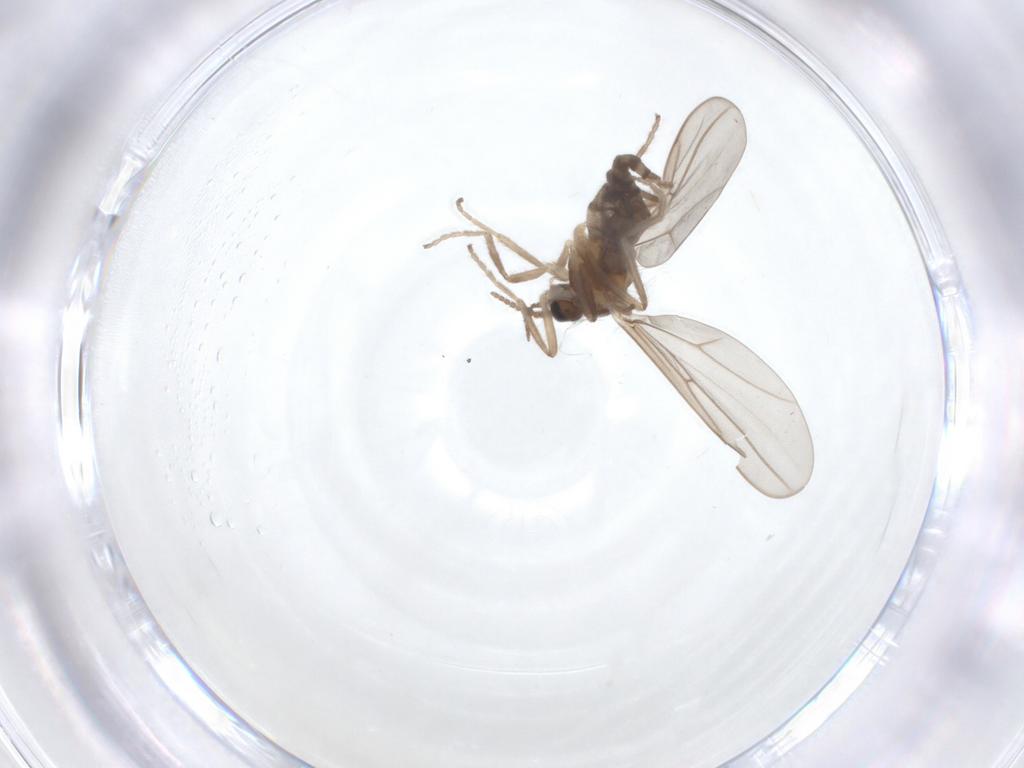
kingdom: Animalia
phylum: Arthropoda
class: Insecta
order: Diptera
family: Cecidomyiidae
